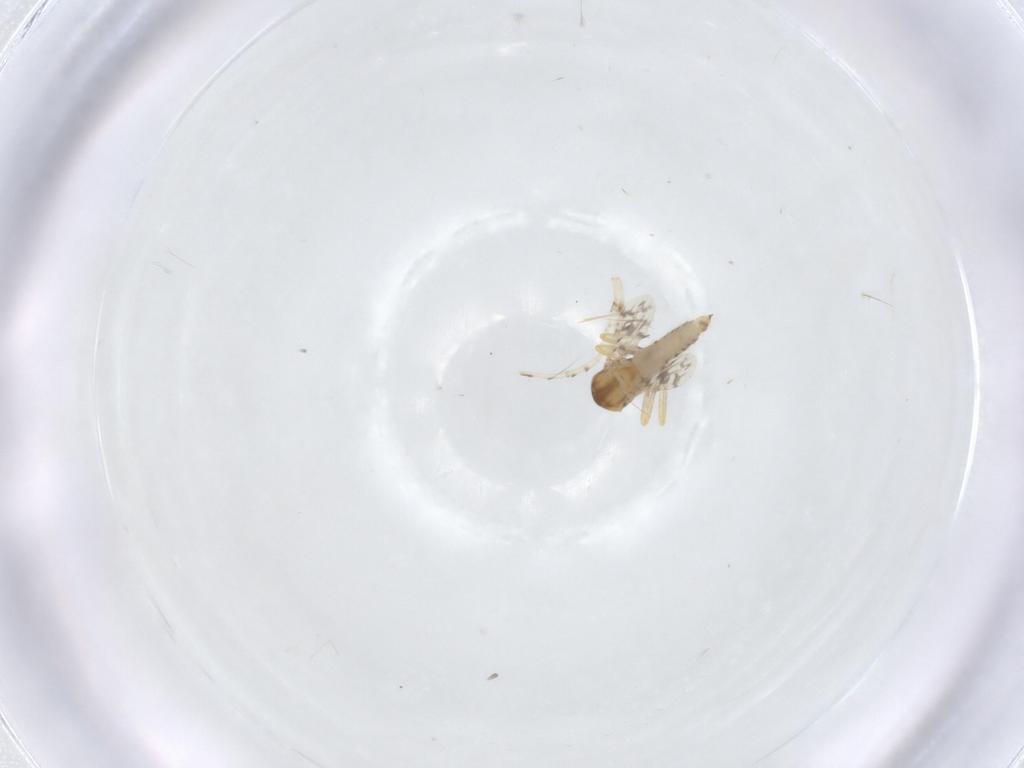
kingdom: Animalia
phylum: Arthropoda
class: Insecta
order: Diptera
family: Ceratopogonidae
